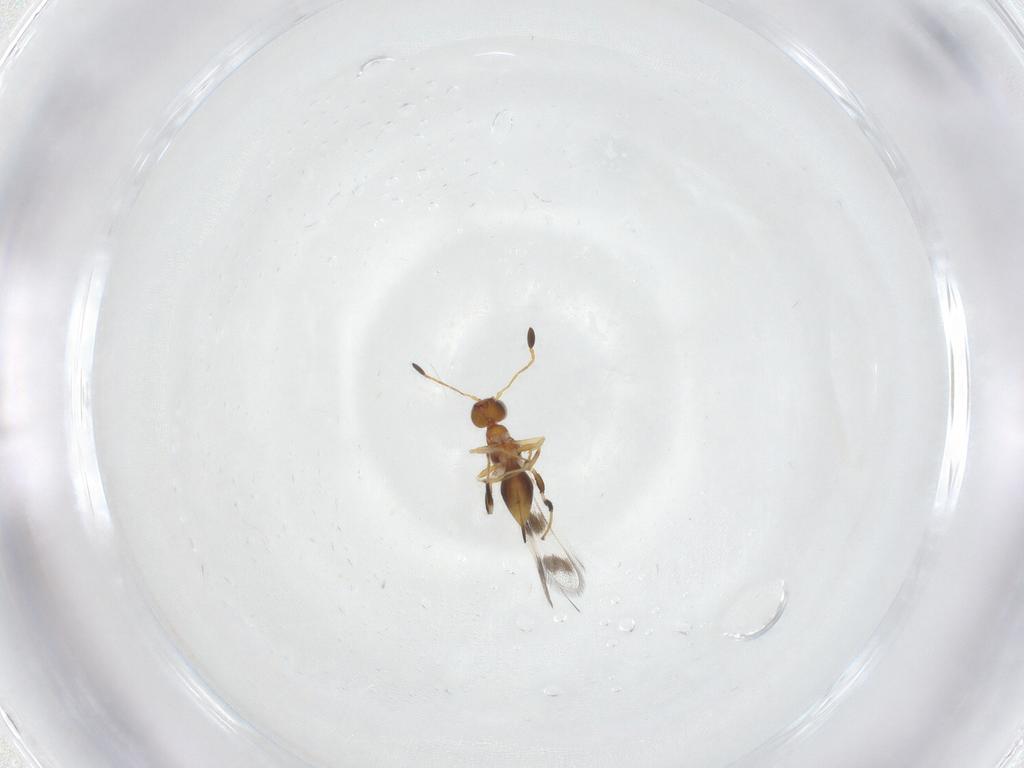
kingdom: Animalia
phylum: Arthropoda
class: Insecta
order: Hymenoptera
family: Mymaridae
